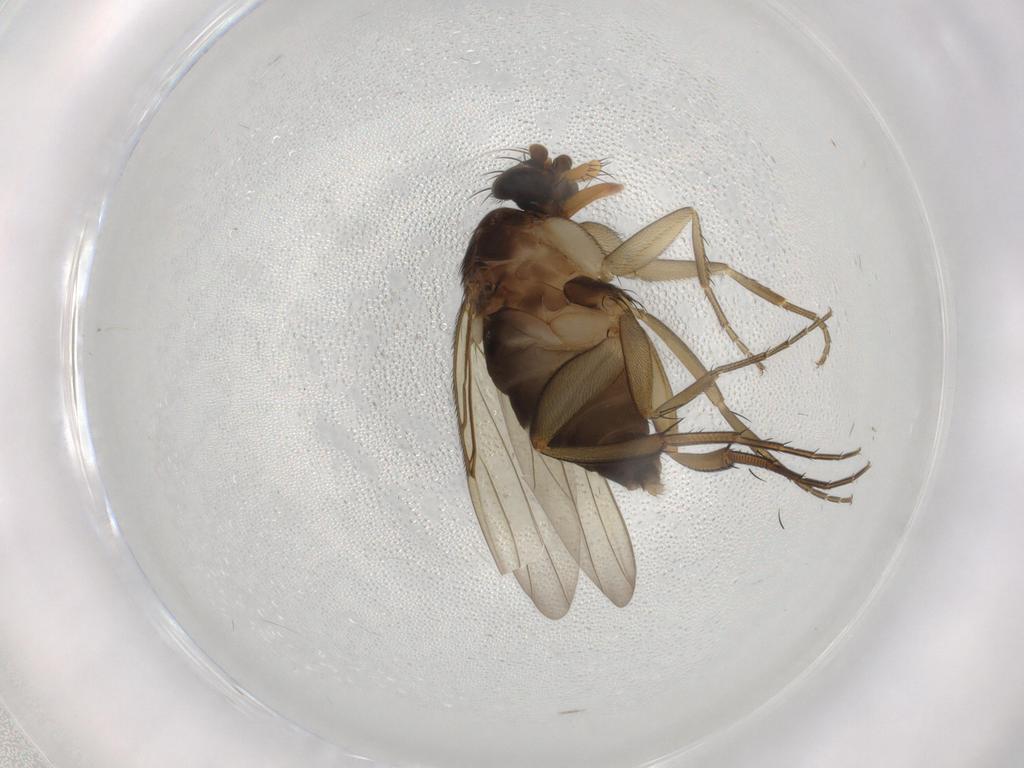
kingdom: Animalia
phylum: Arthropoda
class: Insecta
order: Diptera
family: Phoridae
